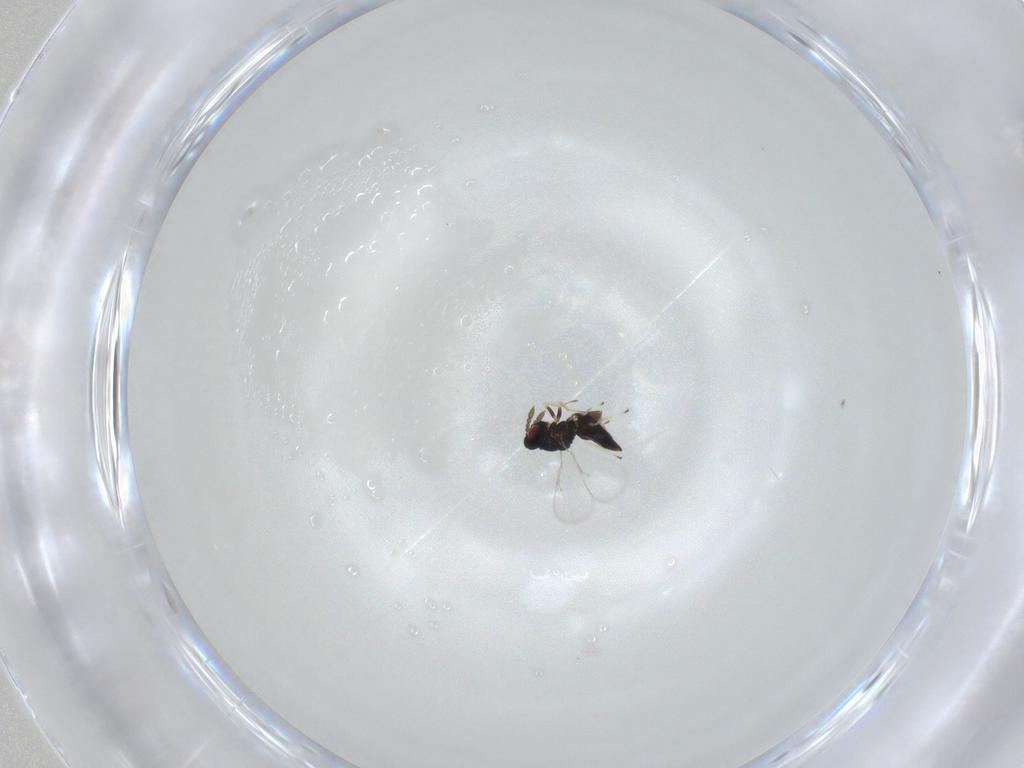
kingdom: Animalia
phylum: Arthropoda
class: Insecta
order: Hymenoptera
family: Eulophidae
